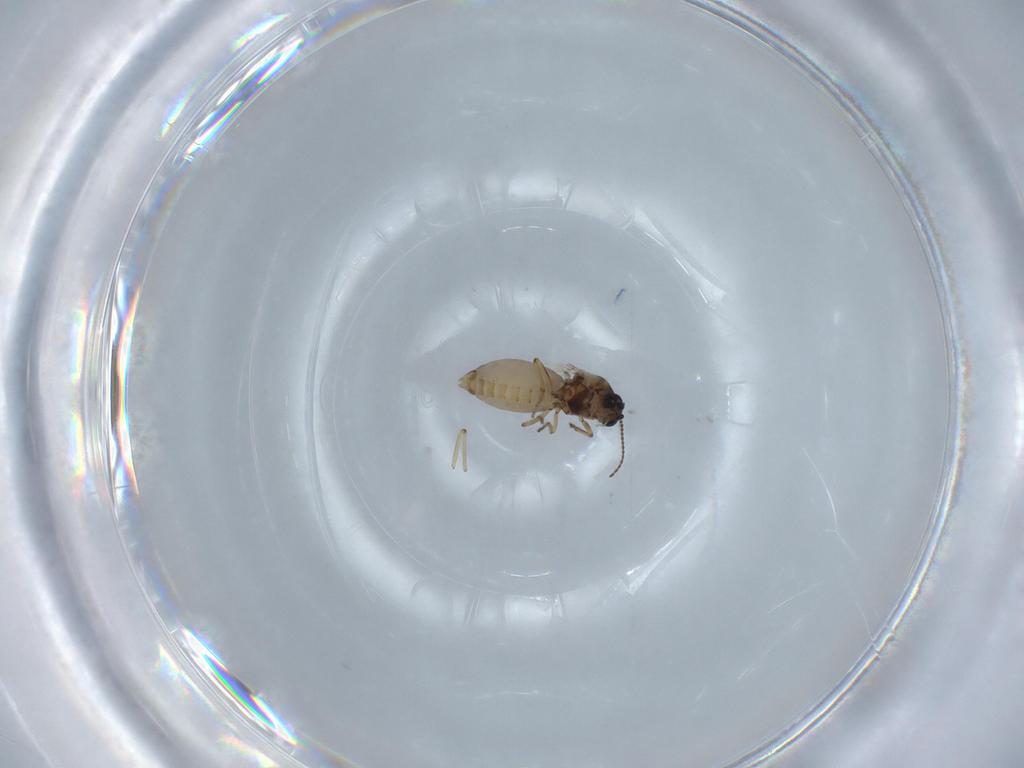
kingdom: Animalia
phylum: Arthropoda
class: Insecta
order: Diptera
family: Ceratopogonidae
